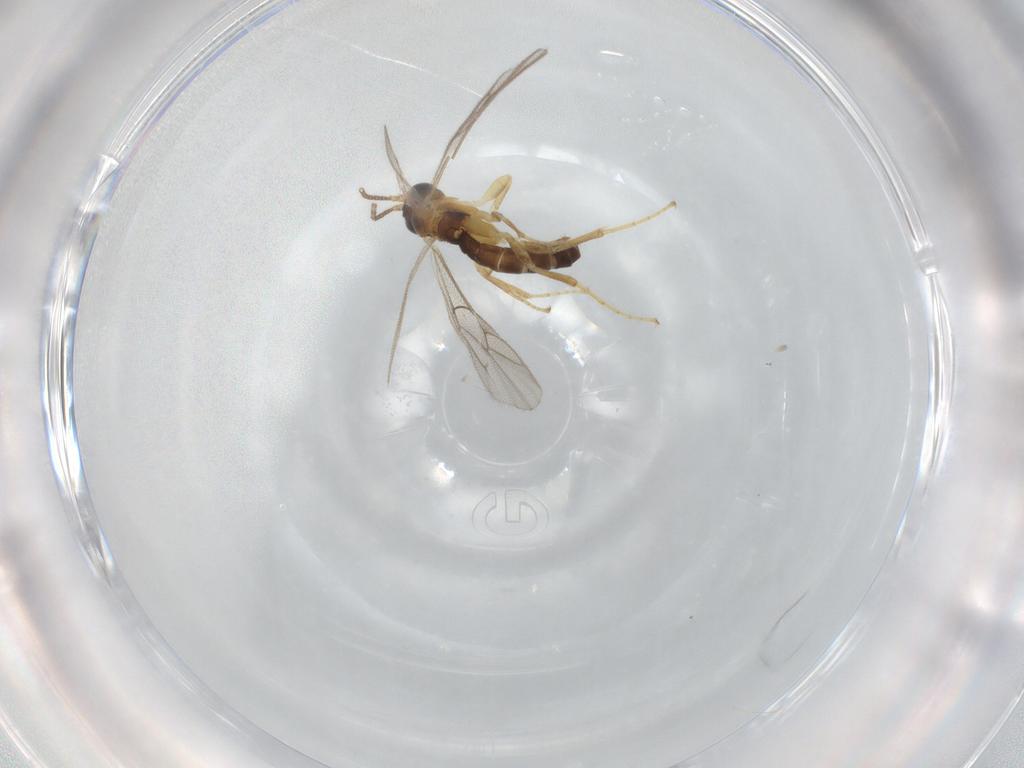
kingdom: Animalia
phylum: Arthropoda
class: Insecta
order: Hymenoptera
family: Ichneumonidae
